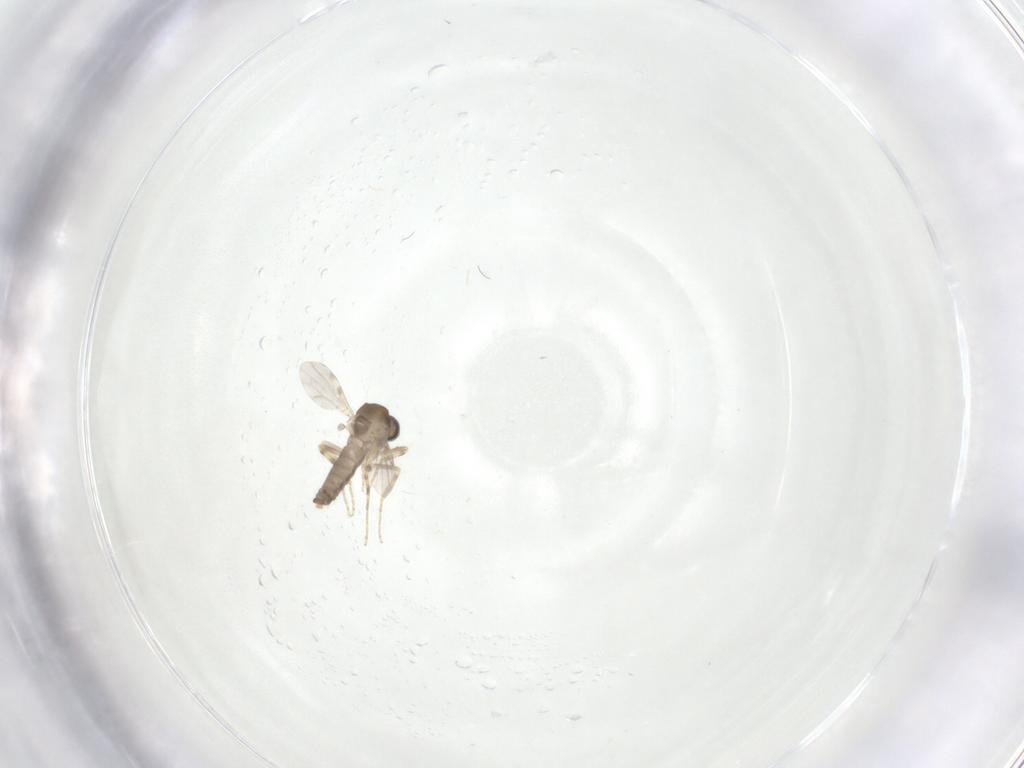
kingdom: Animalia
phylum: Arthropoda
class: Insecta
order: Diptera
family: Ceratopogonidae
